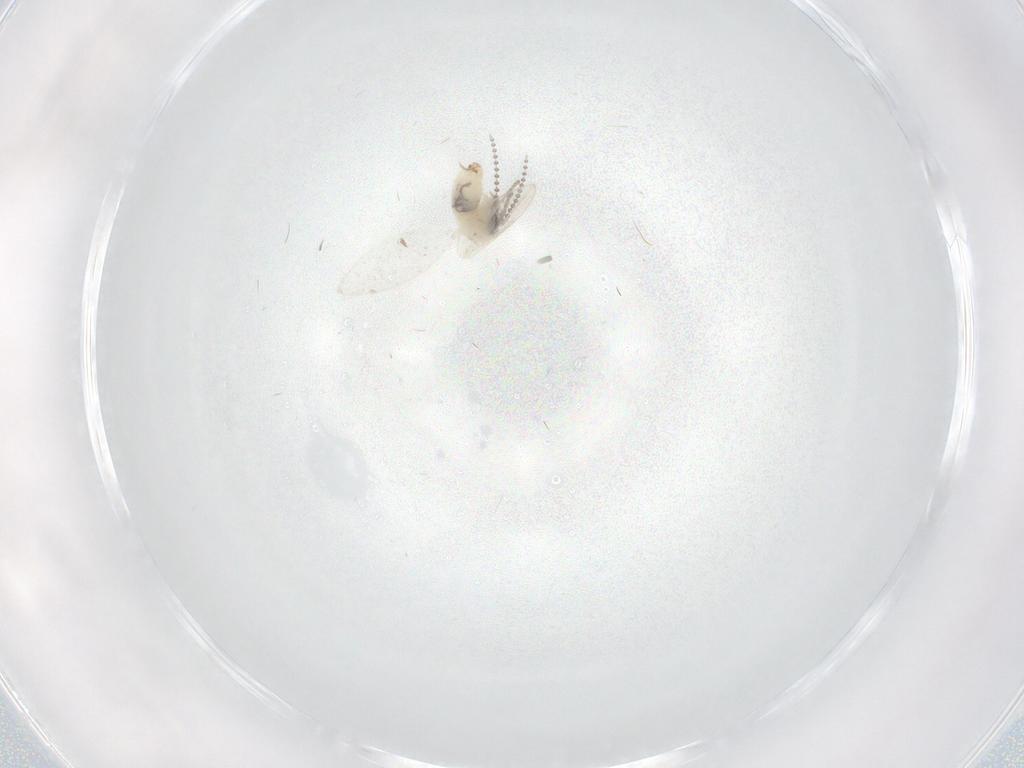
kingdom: Animalia
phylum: Arthropoda
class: Insecta
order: Diptera
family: Psychodidae
